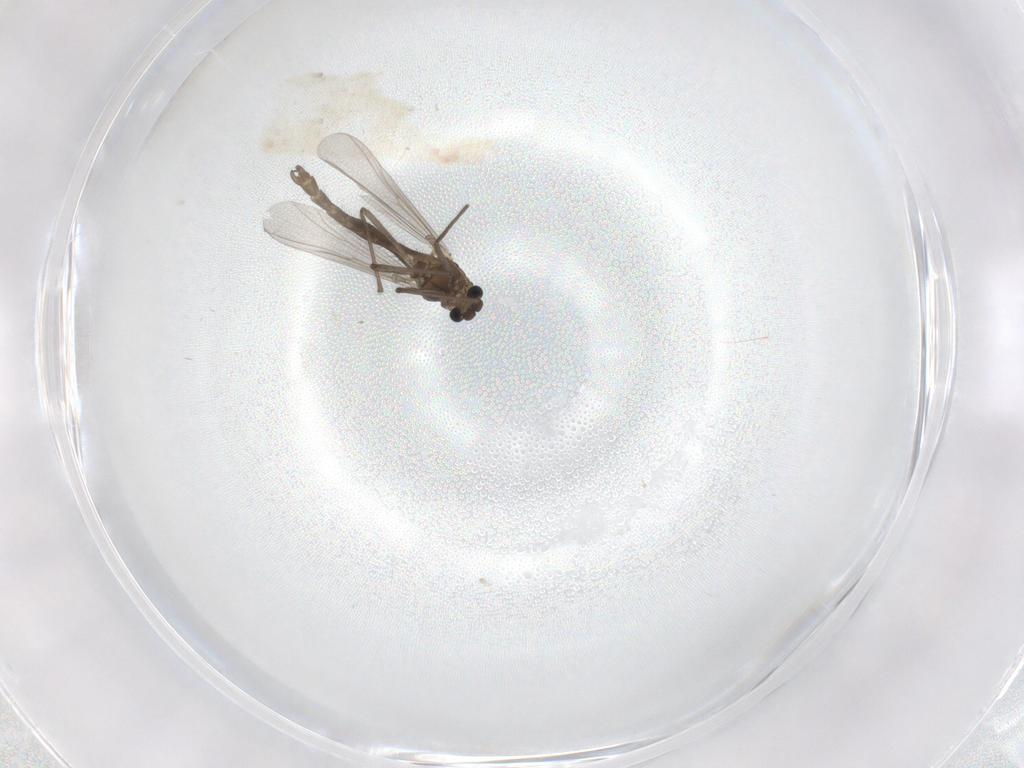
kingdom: Animalia
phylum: Arthropoda
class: Insecta
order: Diptera
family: Chironomidae
